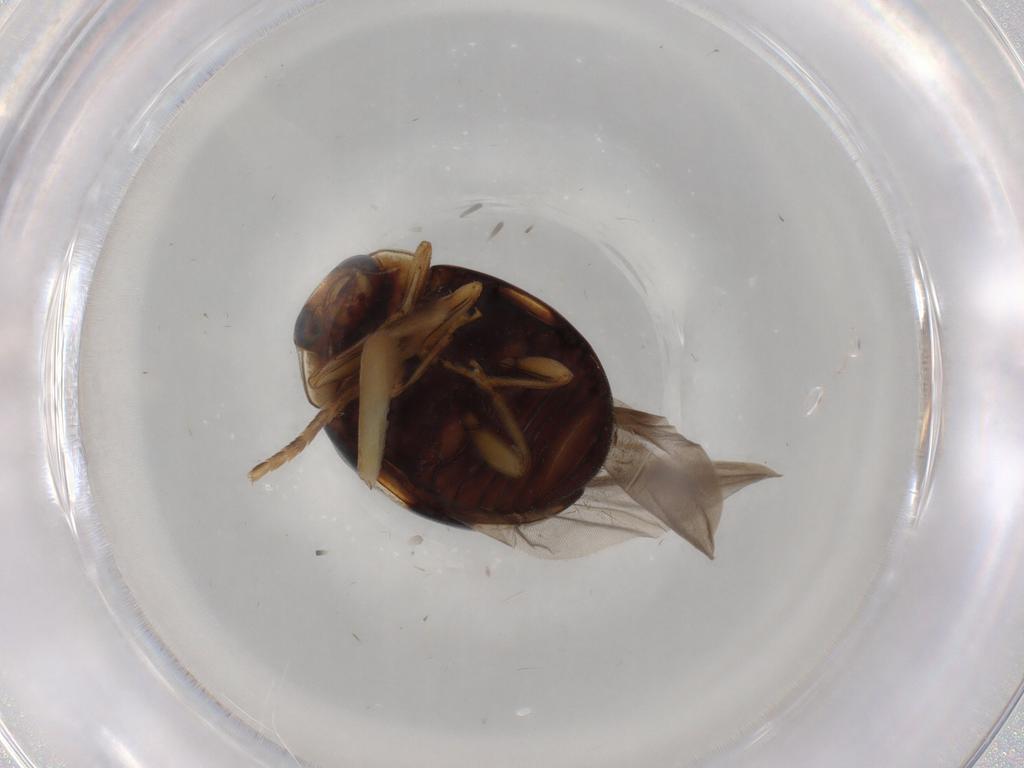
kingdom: Animalia
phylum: Arthropoda
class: Insecta
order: Coleoptera
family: Coccinellidae
